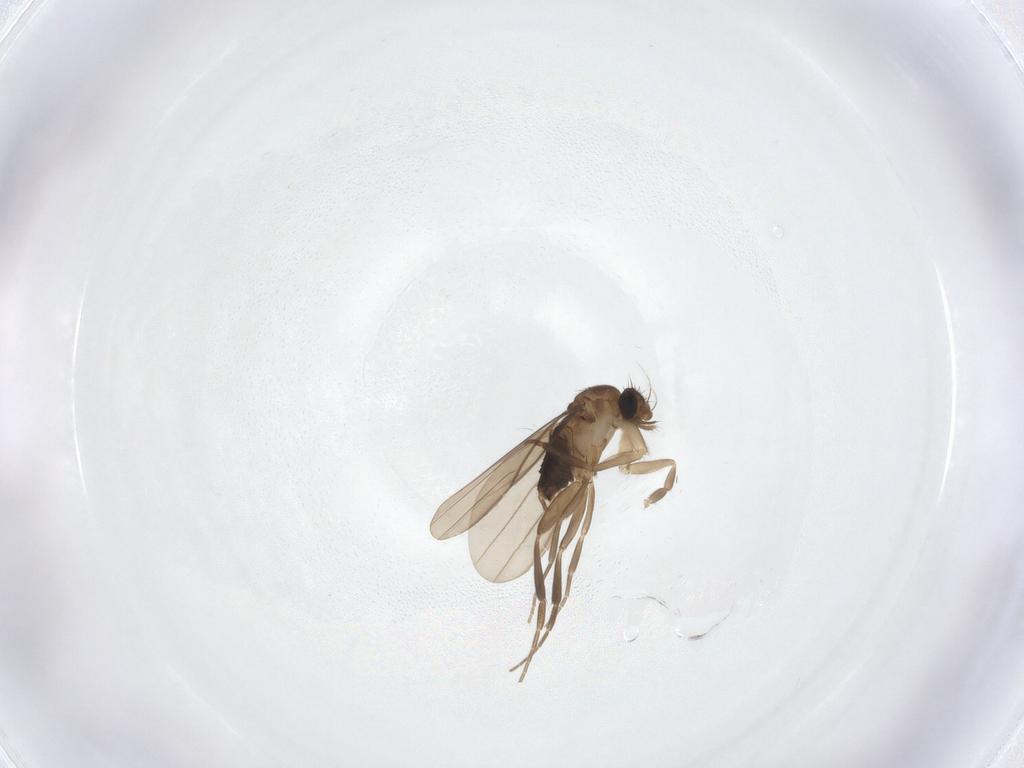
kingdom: Animalia
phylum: Arthropoda
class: Insecta
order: Diptera
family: Phoridae
